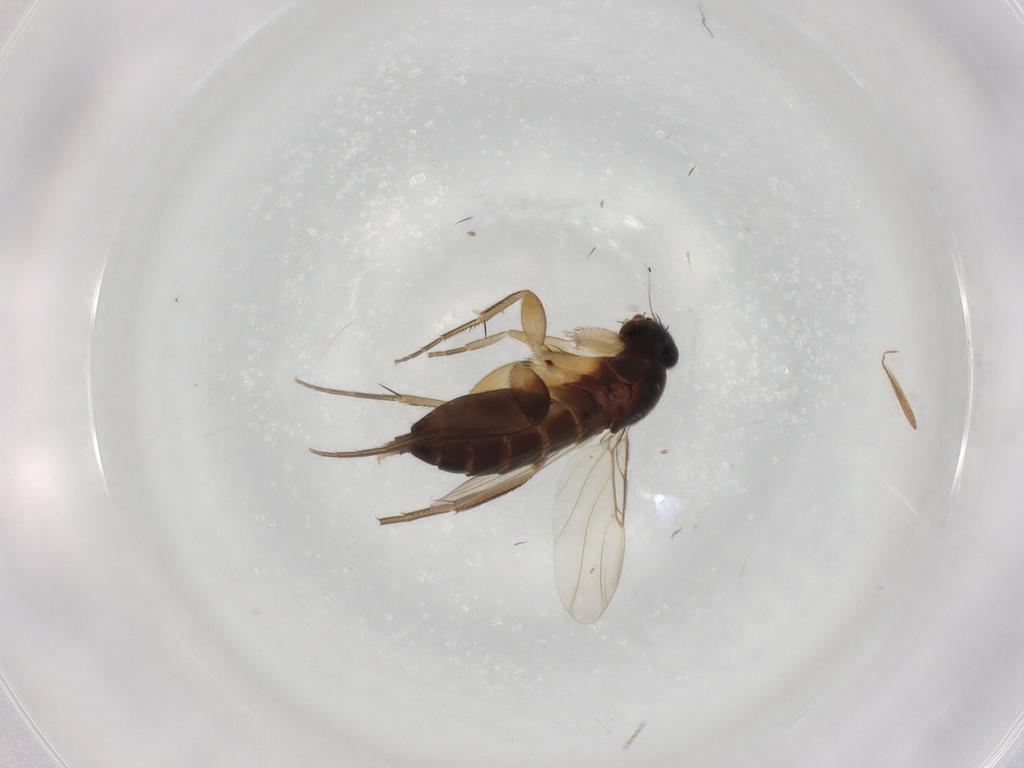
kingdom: Animalia
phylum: Arthropoda
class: Insecta
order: Diptera
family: Phoridae
